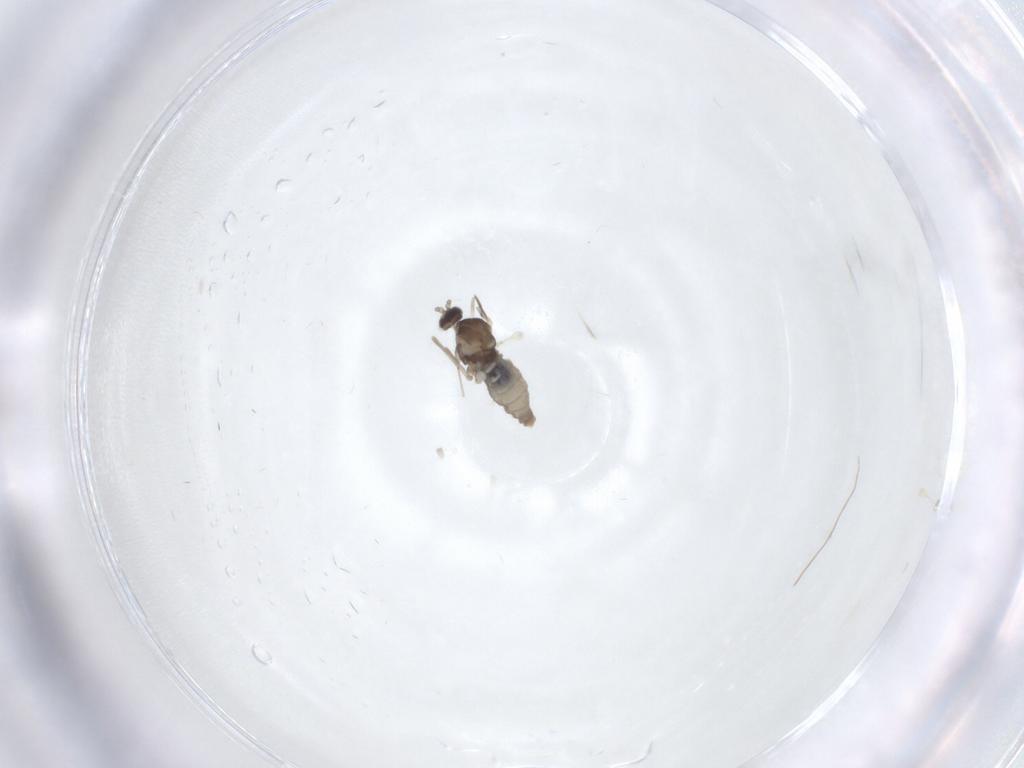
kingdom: Animalia
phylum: Arthropoda
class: Insecta
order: Diptera
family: Cecidomyiidae
